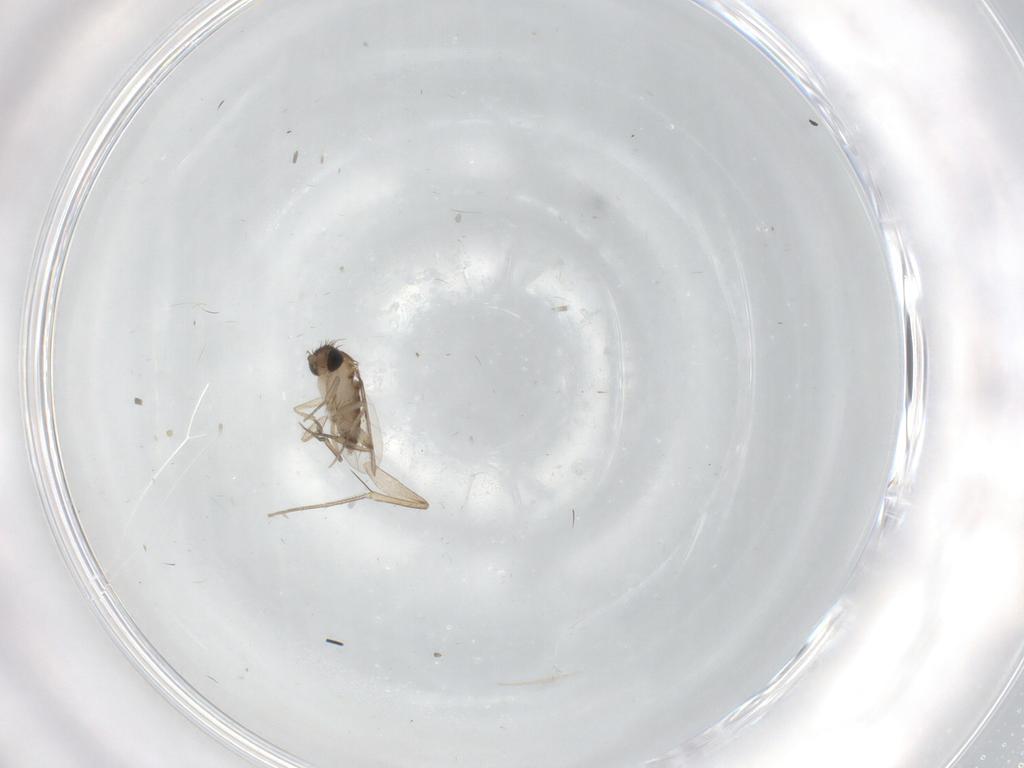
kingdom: Animalia
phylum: Arthropoda
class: Insecta
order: Diptera
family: Phoridae
